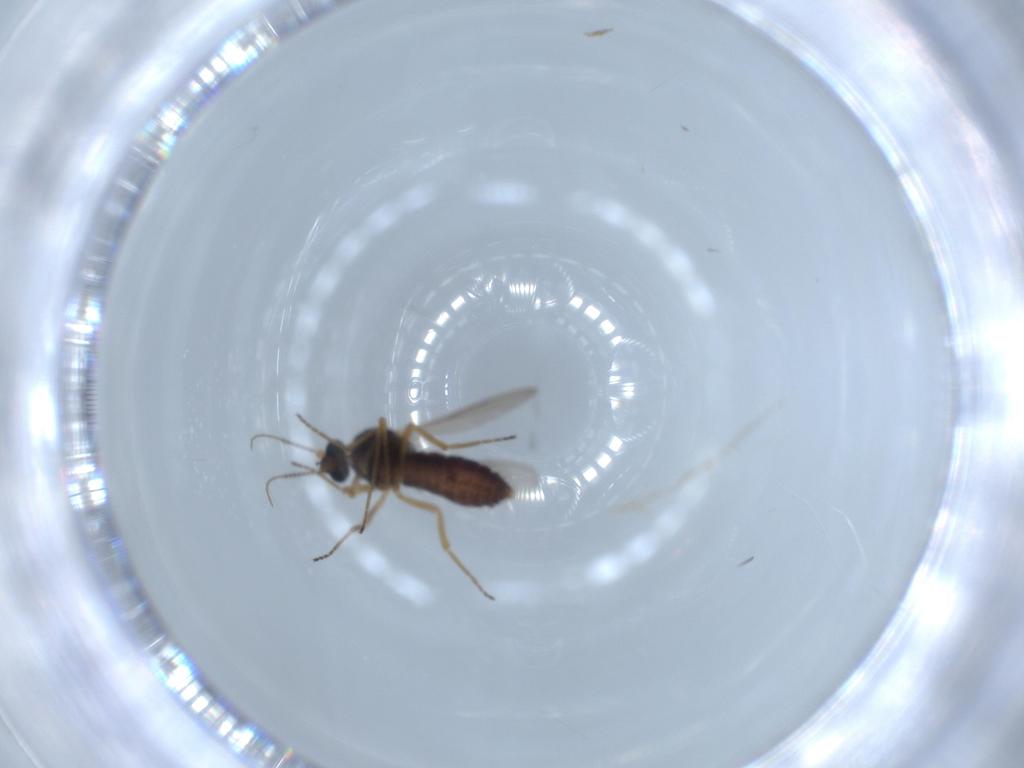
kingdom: Animalia
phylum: Arthropoda
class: Insecta
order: Diptera
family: Ceratopogonidae
